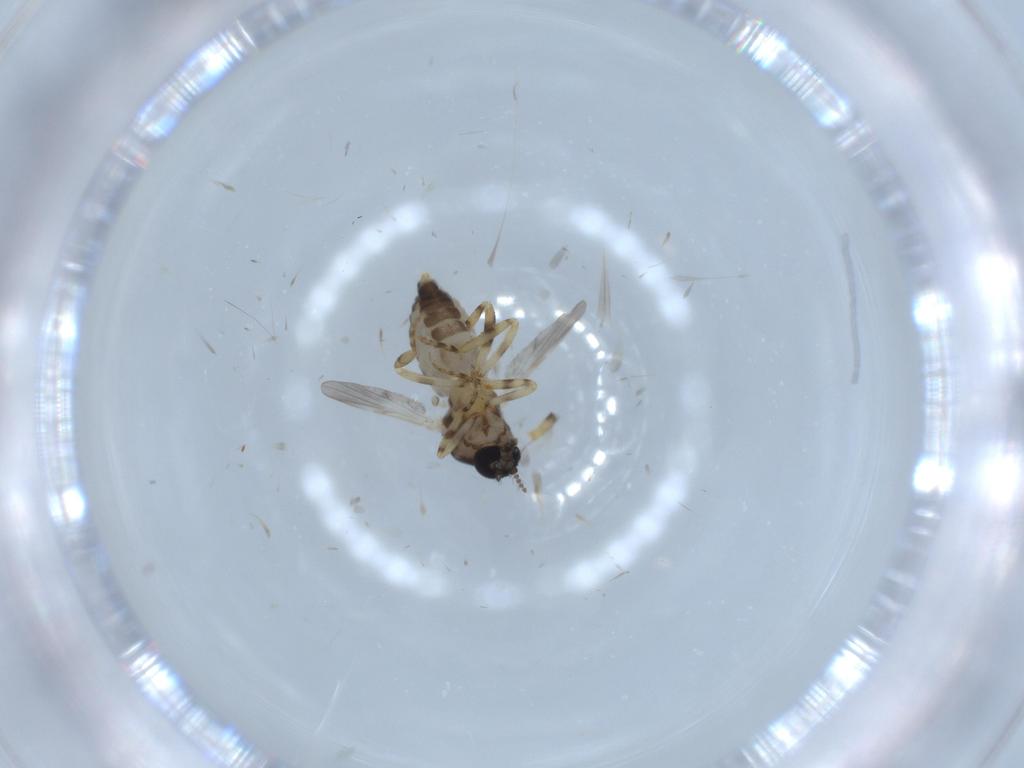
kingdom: Animalia
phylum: Arthropoda
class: Insecta
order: Diptera
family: Ceratopogonidae
